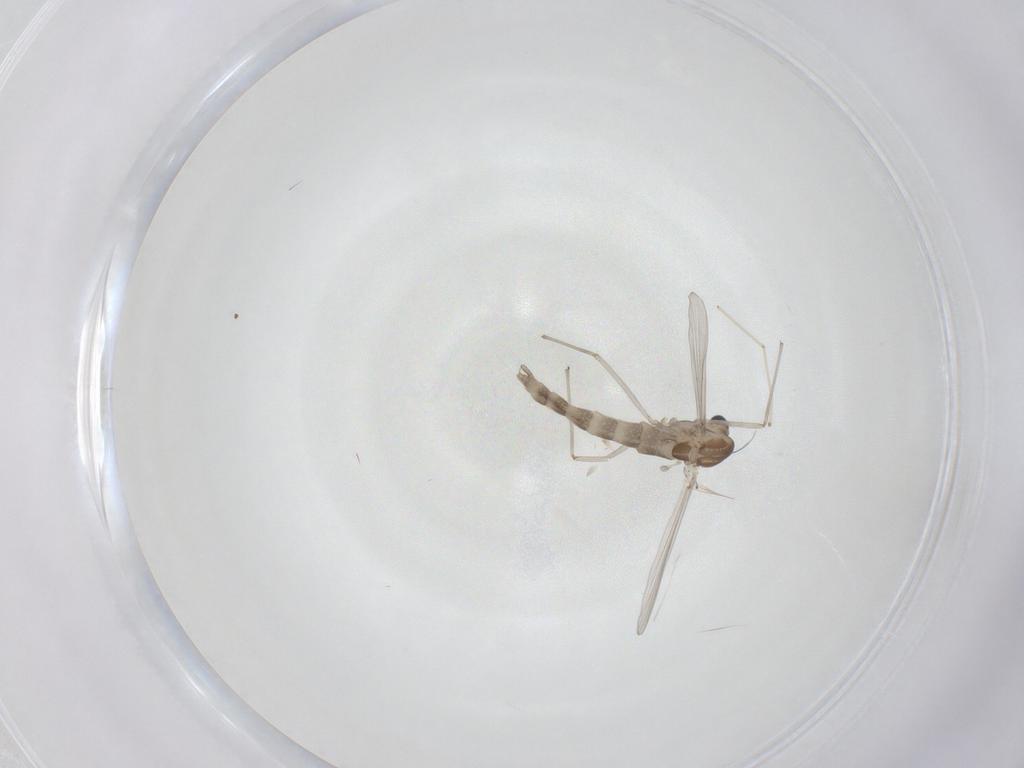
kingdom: Animalia
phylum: Arthropoda
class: Insecta
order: Diptera
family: Chironomidae
